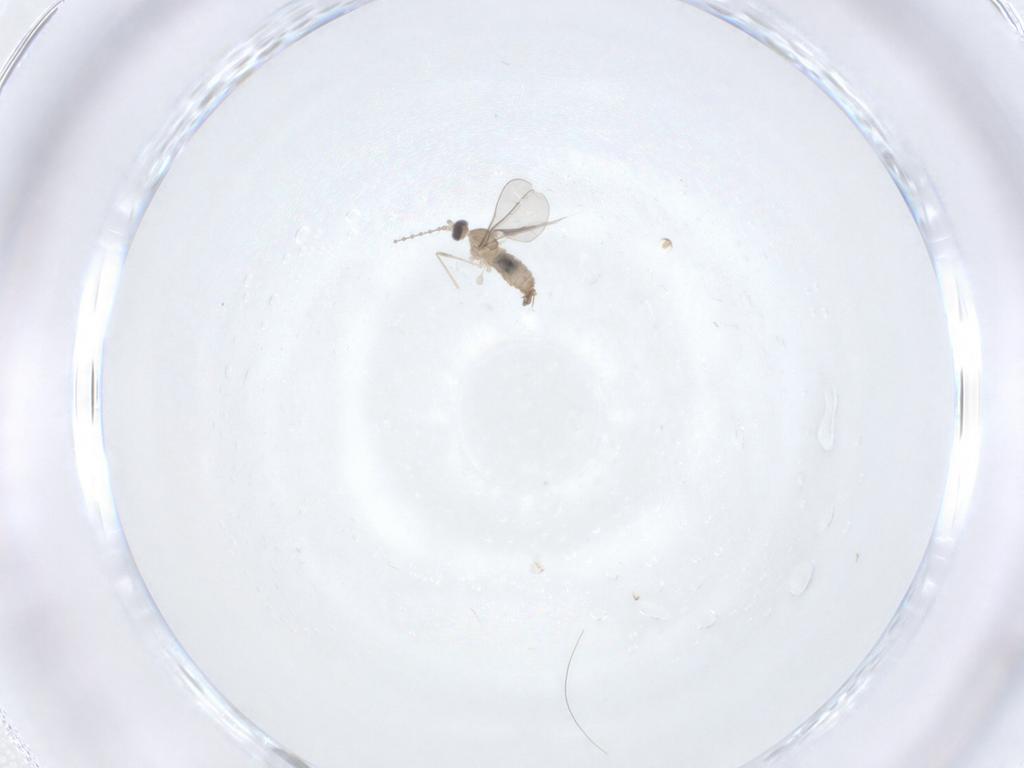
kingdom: Animalia
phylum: Arthropoda
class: Insecta
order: Diptera
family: Cecidomyiidae
